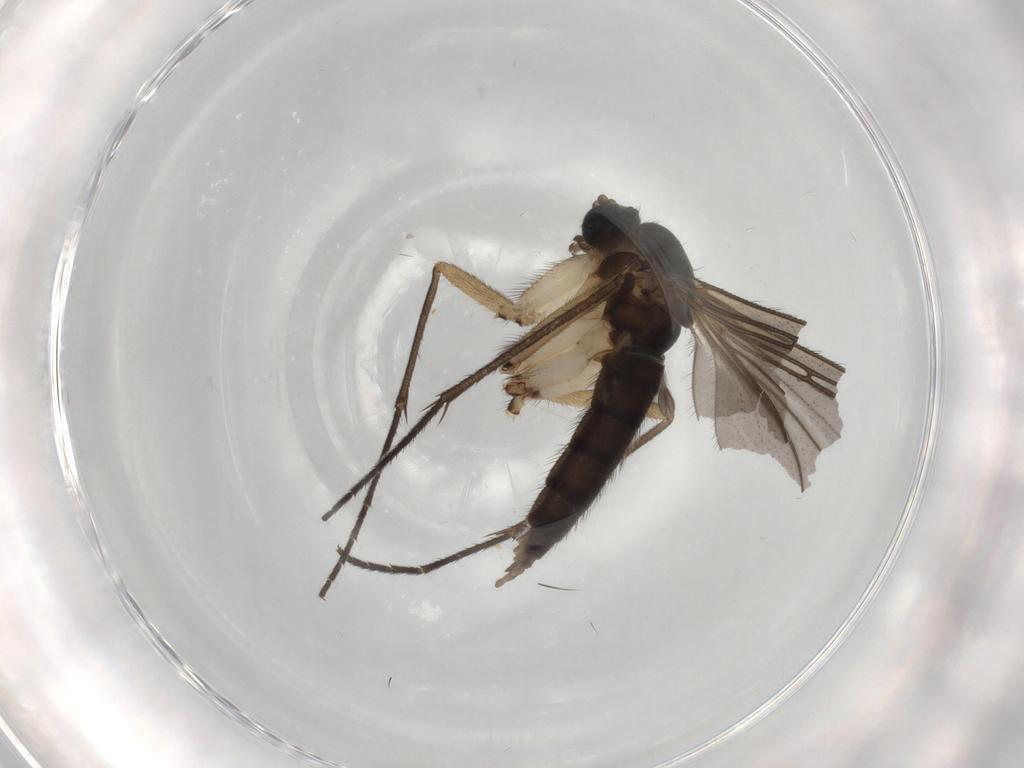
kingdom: Animalia
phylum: Arthropoda
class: Insecta
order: Diptera
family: Sciaridae
